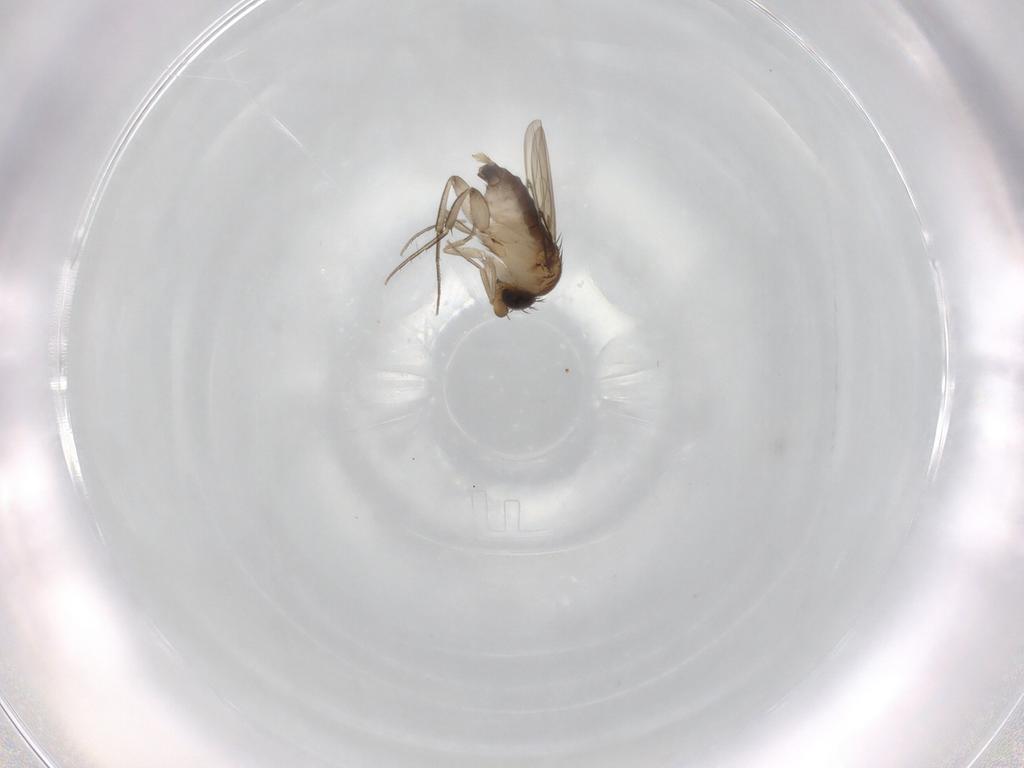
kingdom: Animalia
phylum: Arthropoda
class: Insecta
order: Diptera
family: Phoridae
